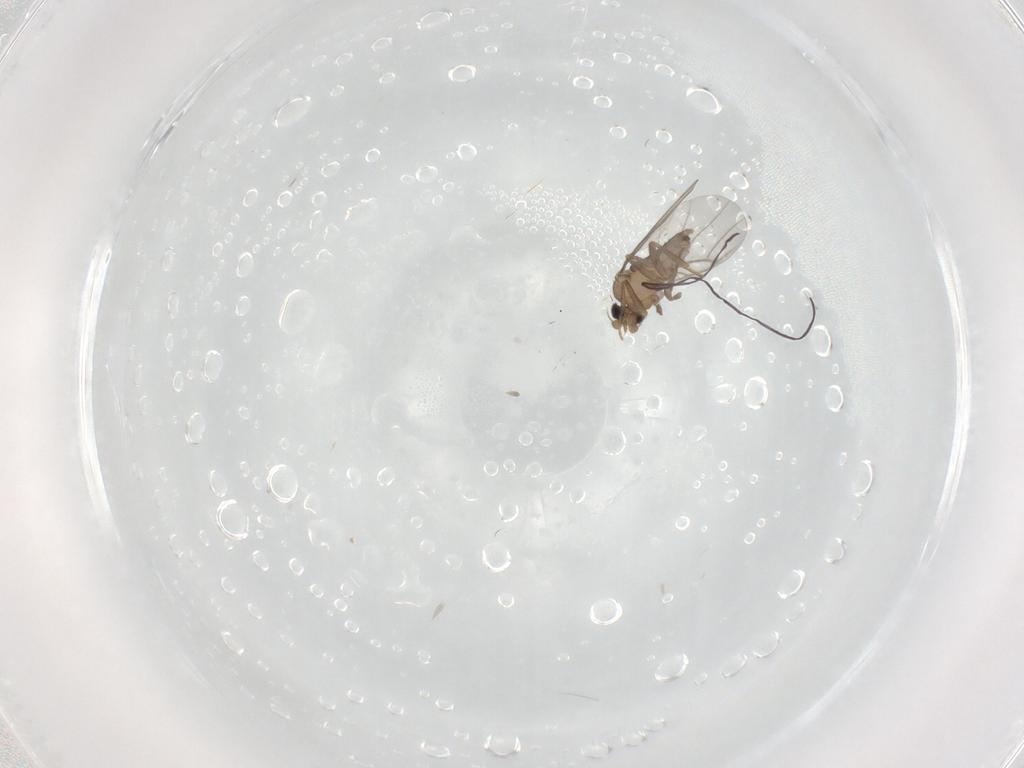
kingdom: Animalia
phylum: Arthropoda
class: Insecta
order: Diptera
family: Ceratopogonidae
